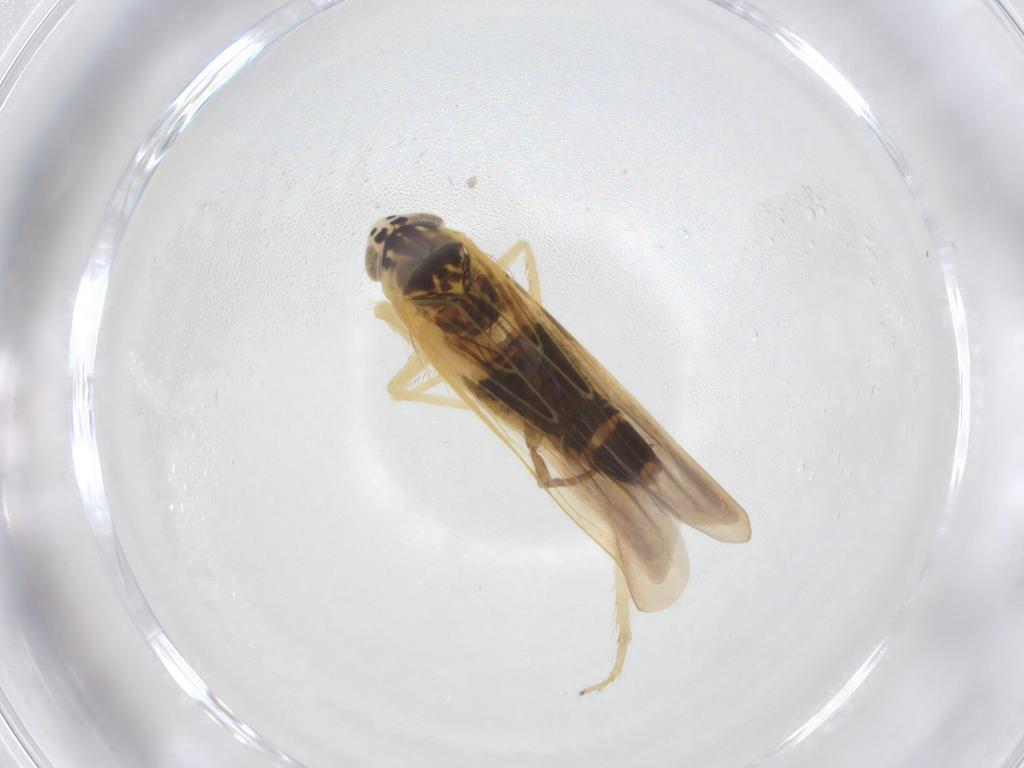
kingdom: Animalia
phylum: Arthropoda
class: Insecta
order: Hemiptera
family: Cicadellidae
